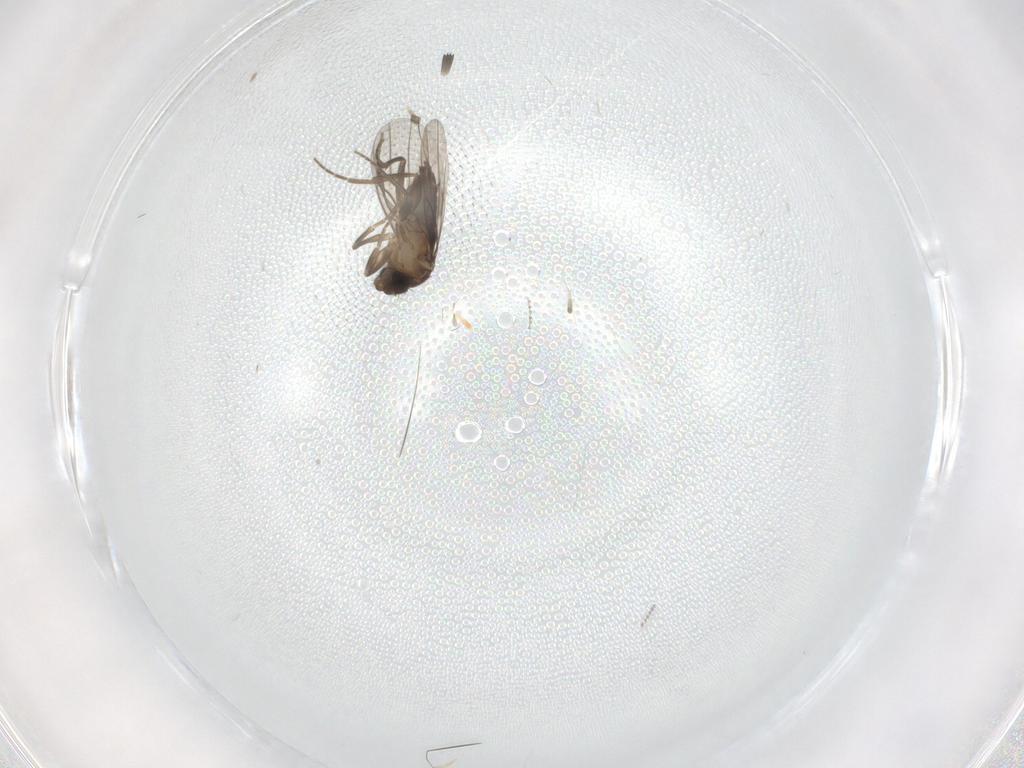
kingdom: Animalia
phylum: Arthropoda
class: Insecta
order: Diptera
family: Cecidomyiidae
